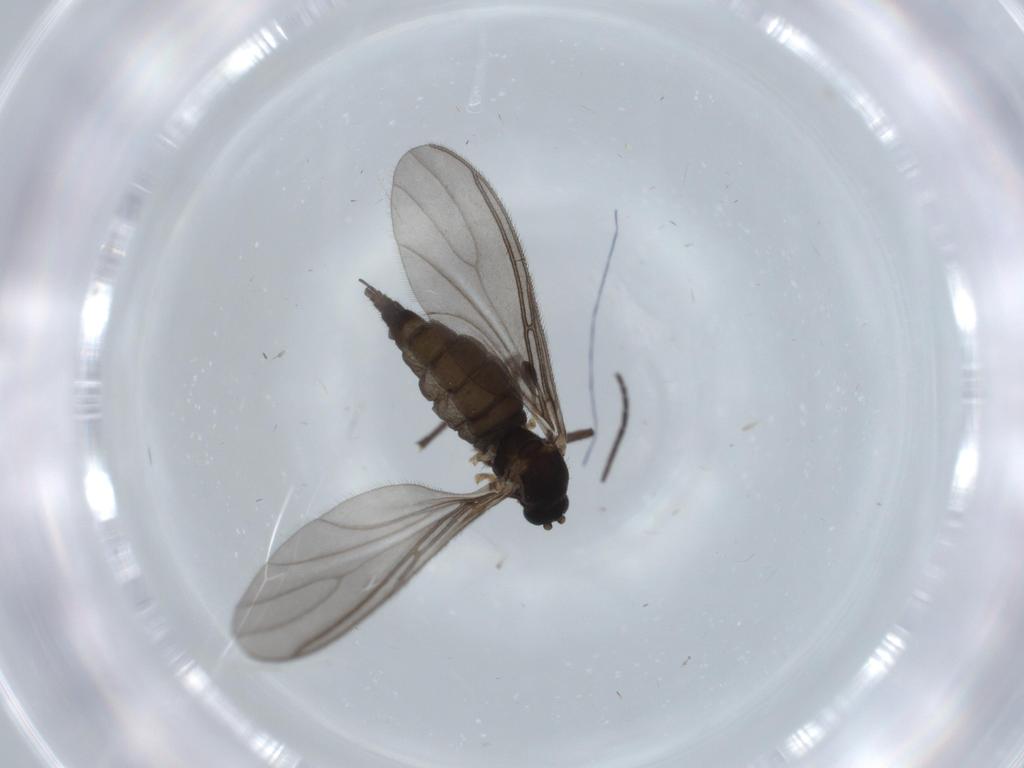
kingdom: Animalia
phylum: Arthropoda
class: Insecta
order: Diptera
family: Sciaridae
